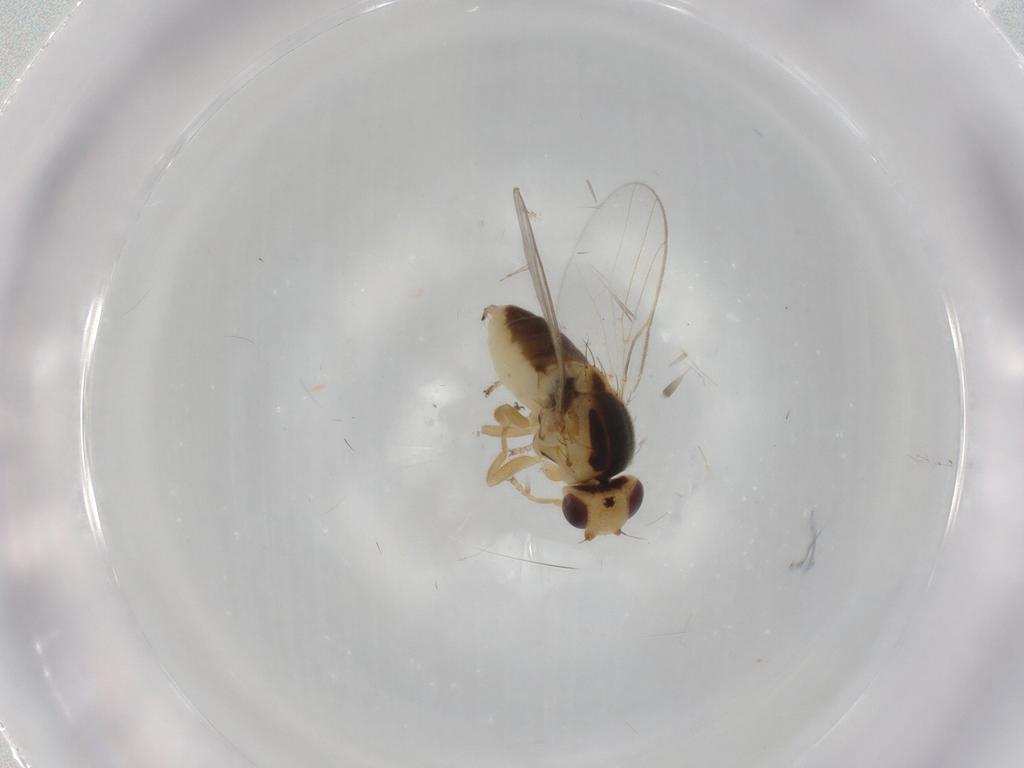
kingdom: Animalia
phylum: Arthropoda
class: Insecta
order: Diptera
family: Chloropidae
